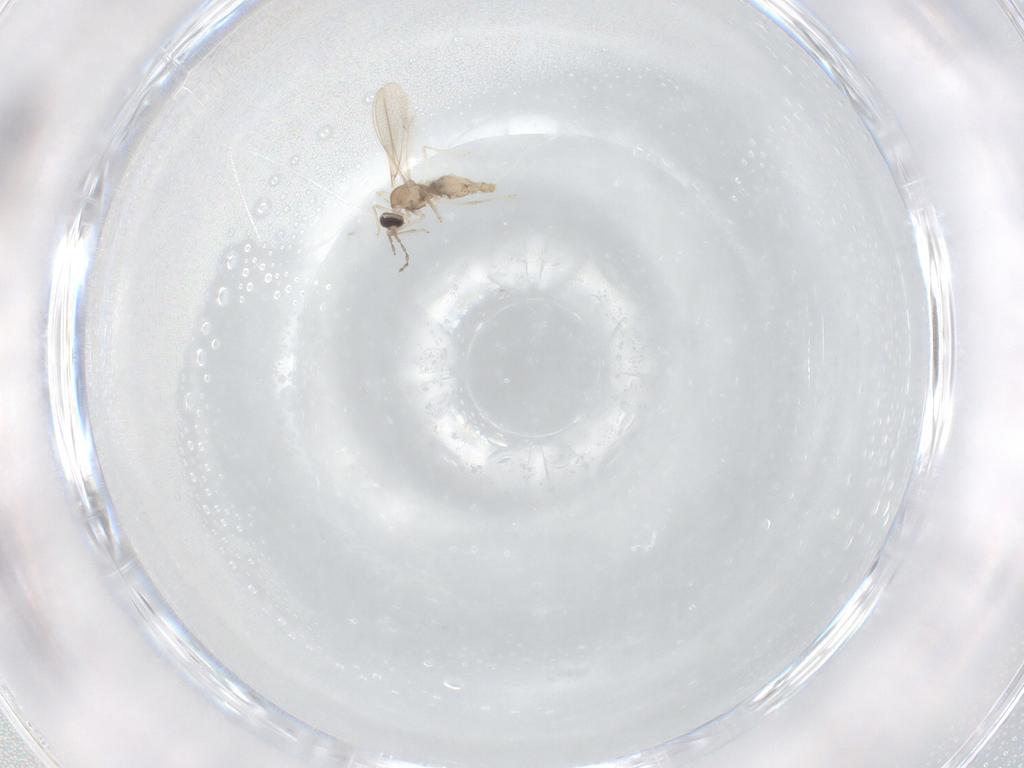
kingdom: Animalia
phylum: Arthropoda
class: Insecta
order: Diptera
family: Cecidomyiidae
